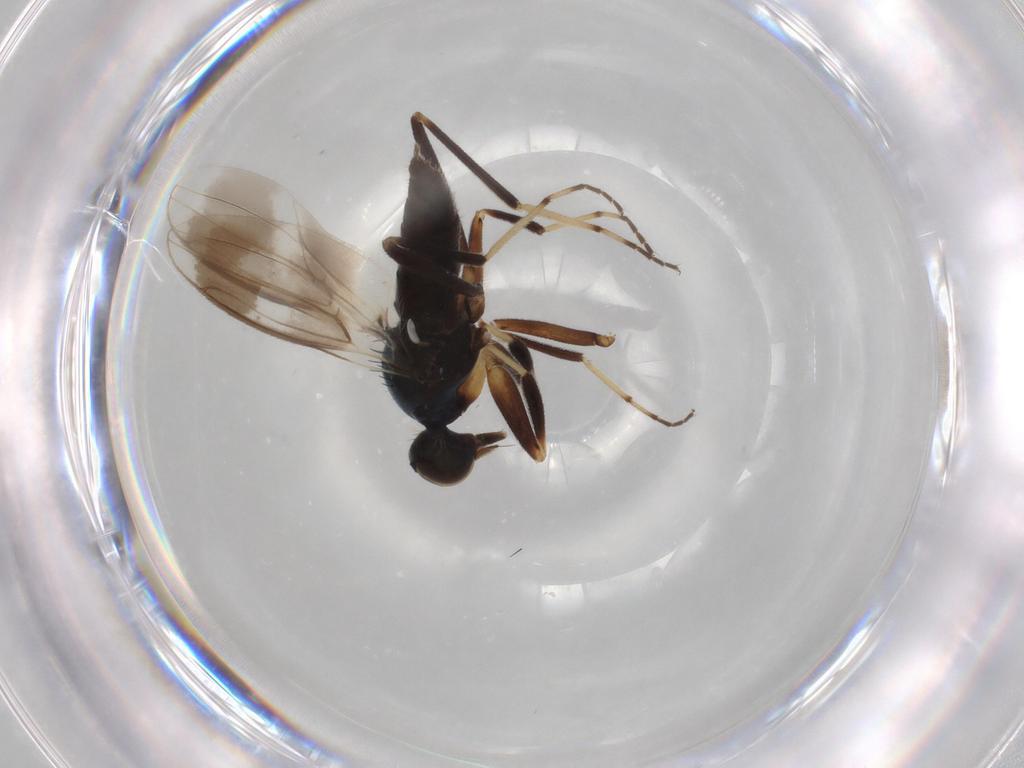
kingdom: Animalia
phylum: Arthropoda
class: Insecta
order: Diptera
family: Hybotidae
